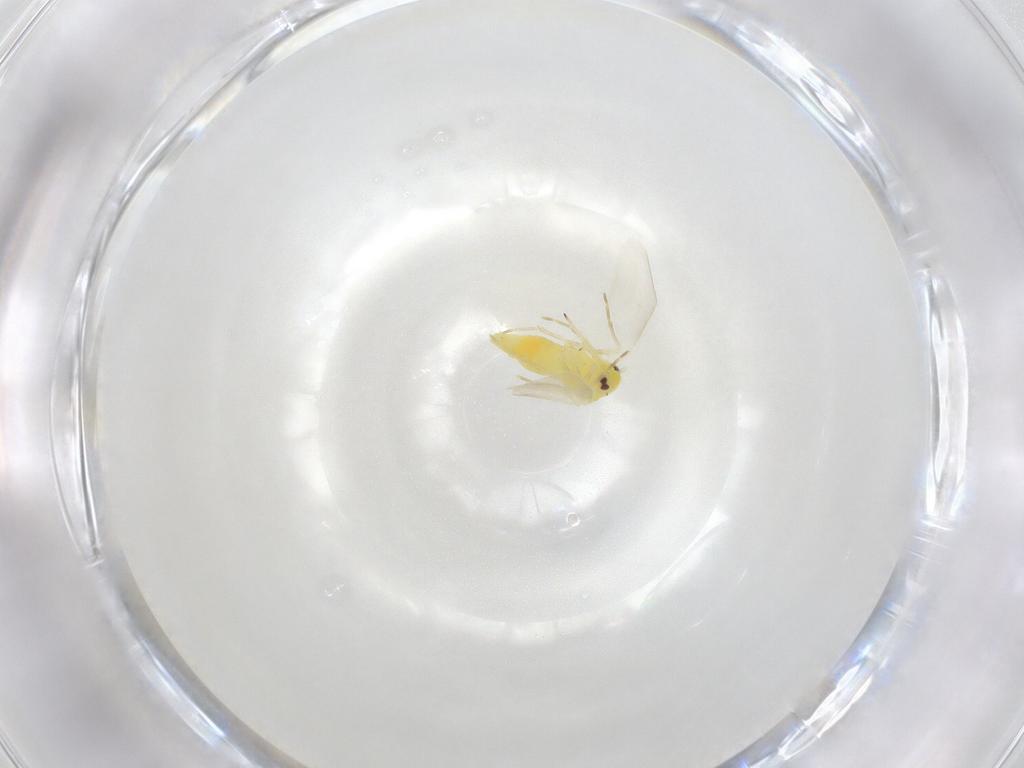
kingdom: Animalia
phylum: Arthropoda
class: Insecta
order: Hemiptera
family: Aleyrodidae
